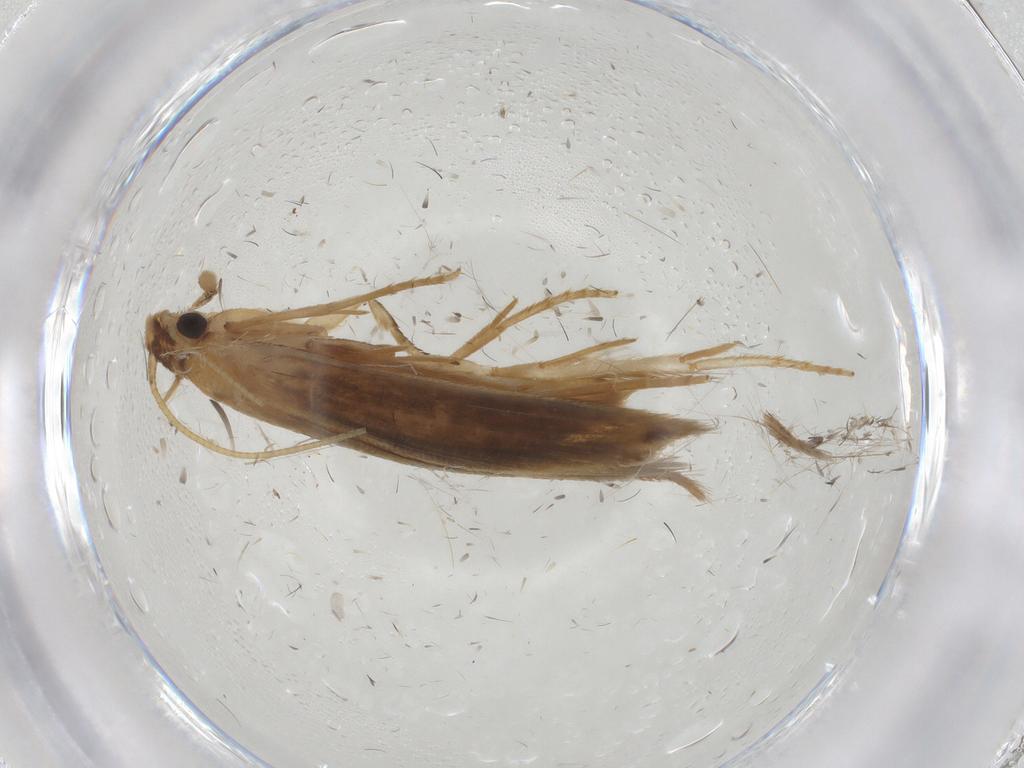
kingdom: Animalia
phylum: Arthropoda
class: Insecta
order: Lepidoptera
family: Cosmopterigidae
